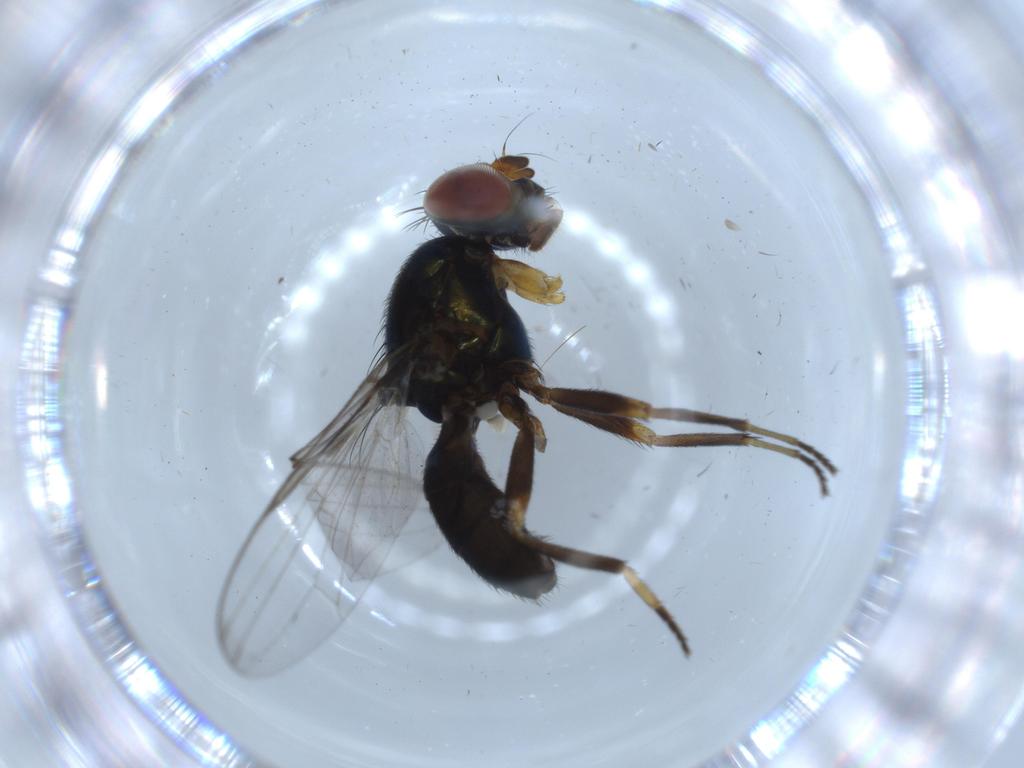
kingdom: Animalia
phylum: Arthropoda
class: Insecta
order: Diptera
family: Ulidiidae
